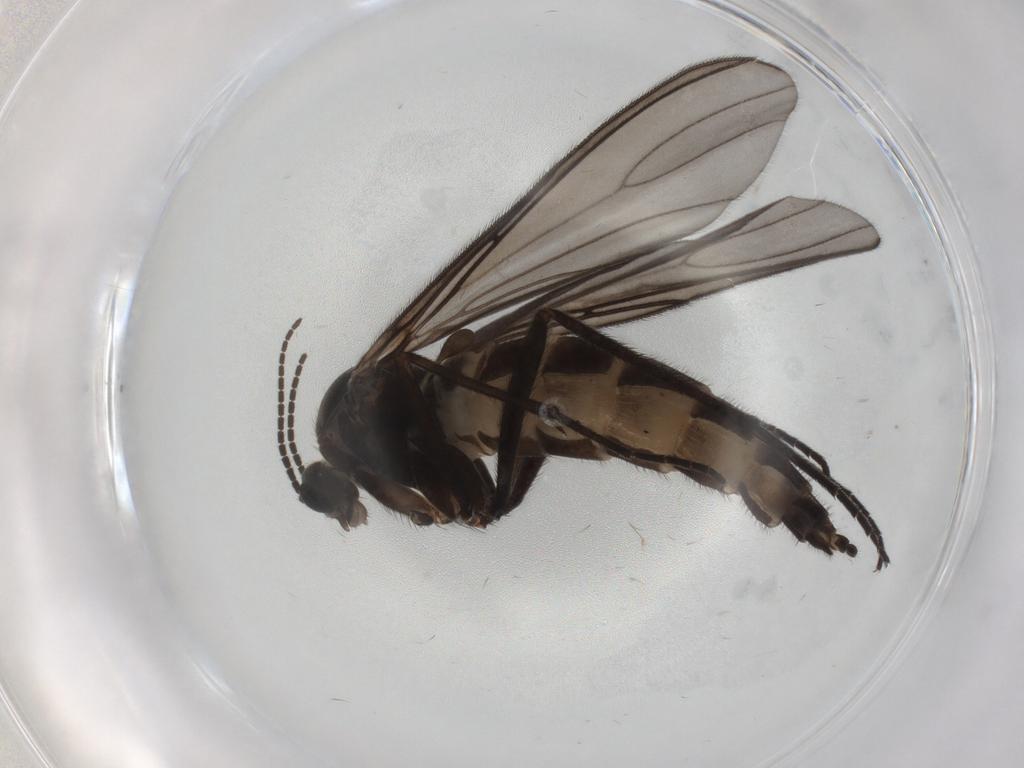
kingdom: Animalia
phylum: Arthropoda
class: Insecta
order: Diptera
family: Sciaridae
